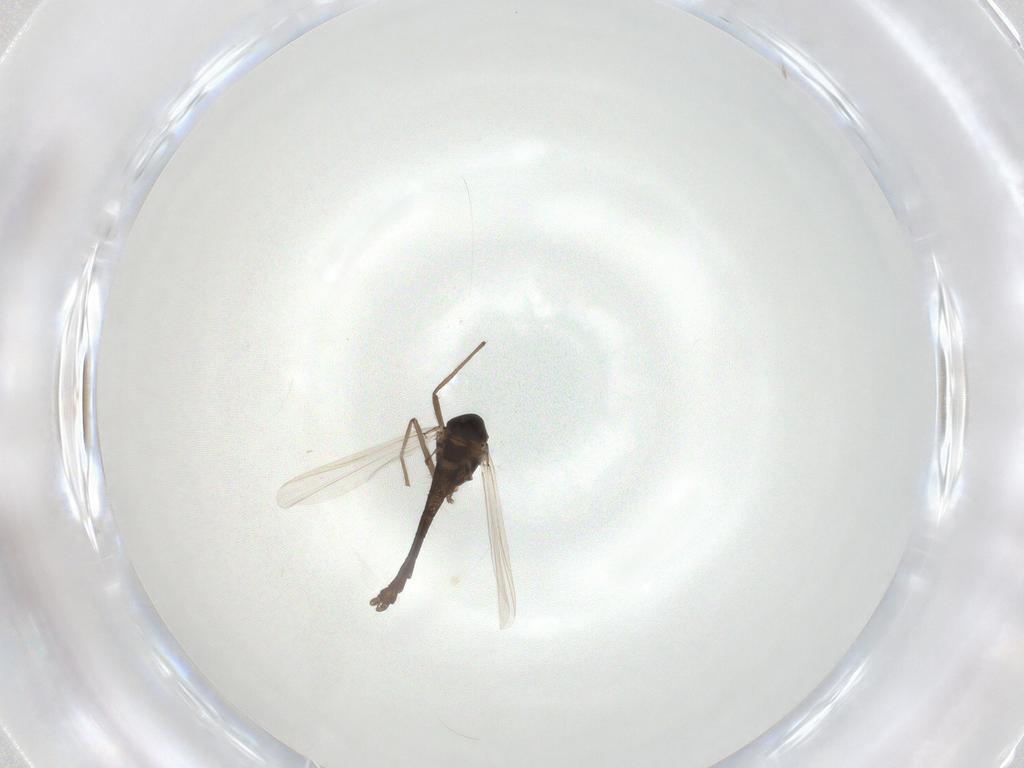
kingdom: Animalia
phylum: Arthropoda
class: Insecta
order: Diptera
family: Chironomidae
